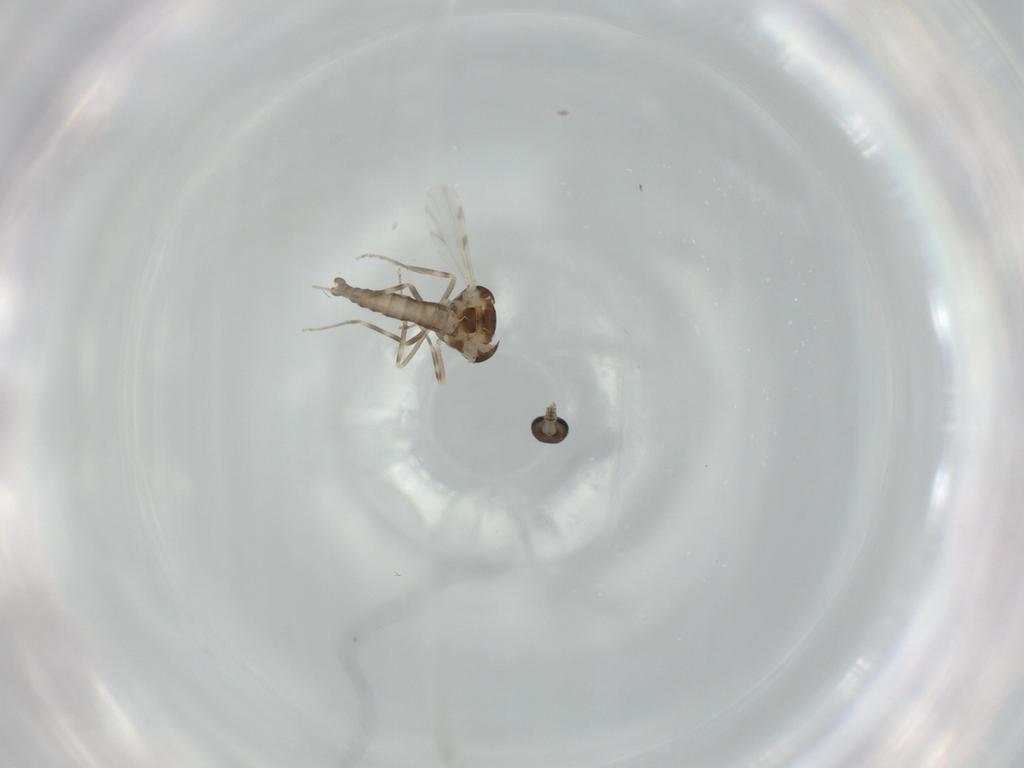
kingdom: Animalia
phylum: Arthropoda
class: Insecta
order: Diptera
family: Ceratopogonidae
